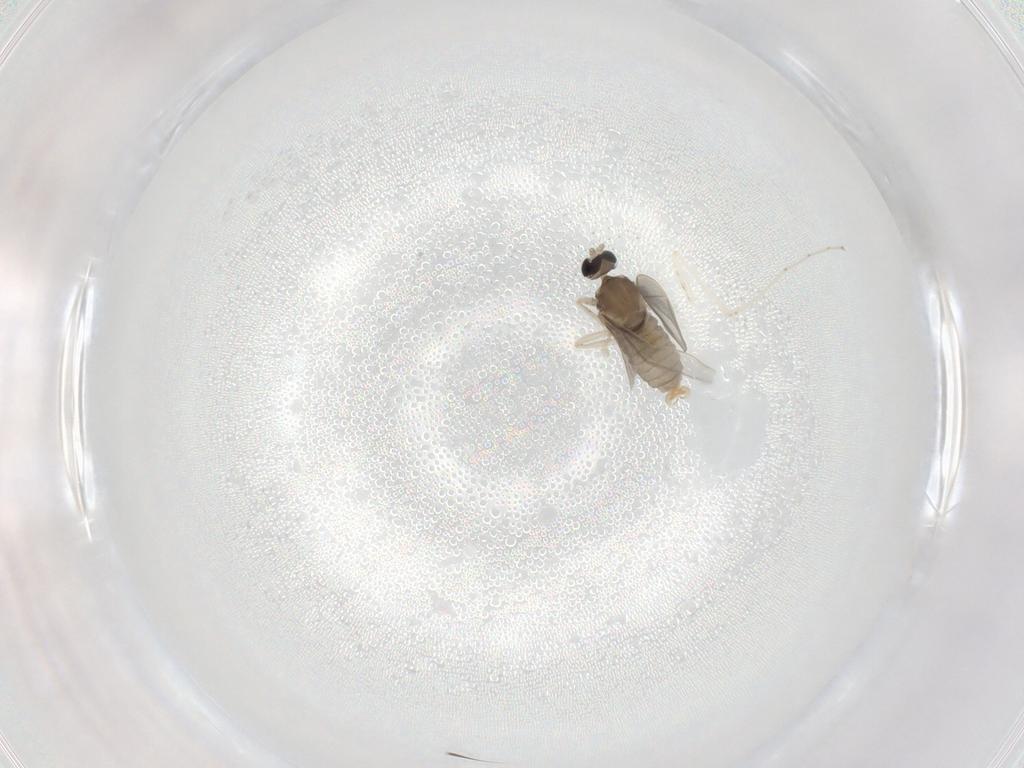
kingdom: Animalia
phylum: Arthropoda
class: Insecta
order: Diptera
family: Cecidomyiidae
